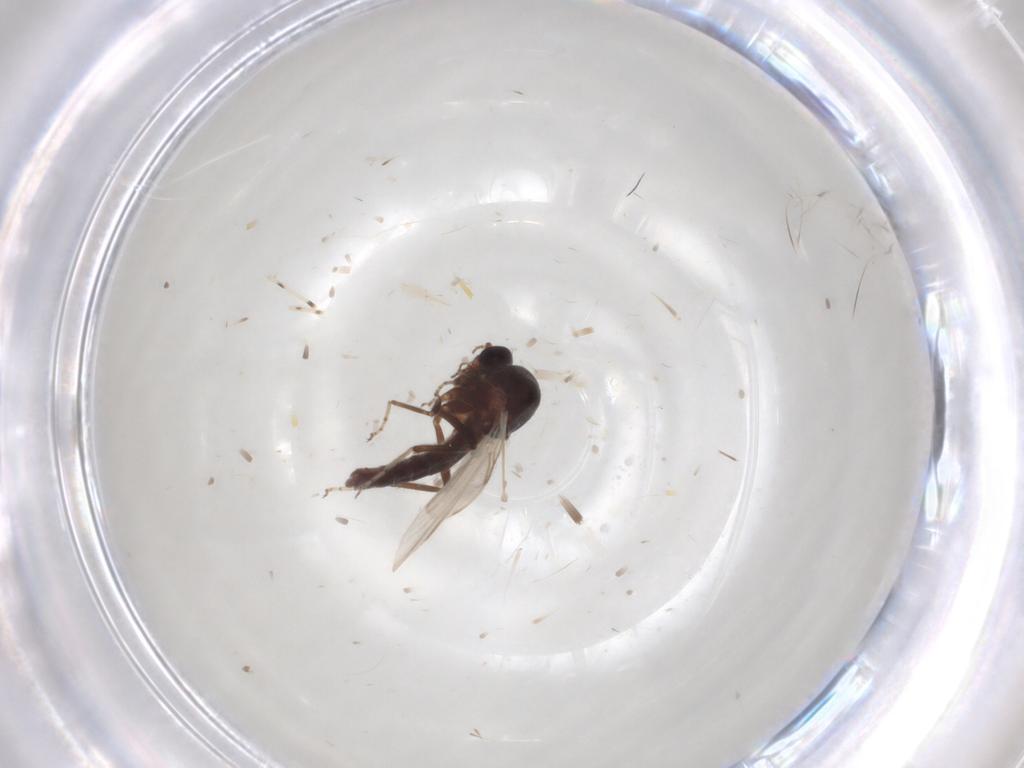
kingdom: Animalia
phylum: Arthropoda
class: Insecta
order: Diptera
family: Ceratopogonidae
